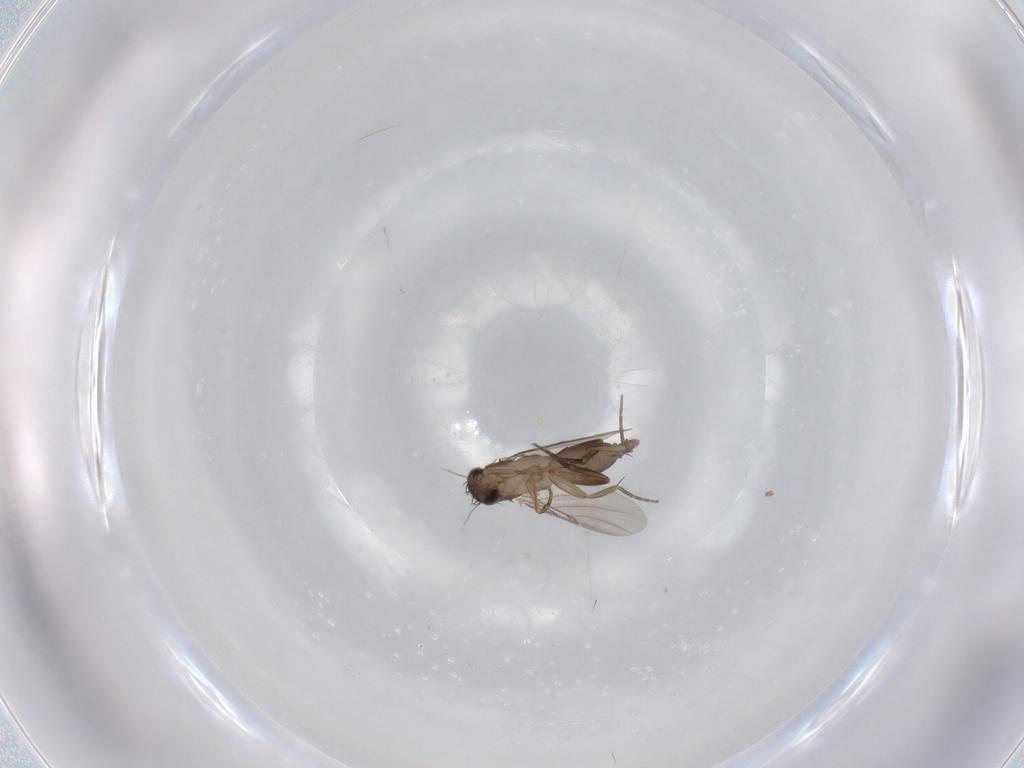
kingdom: Animalia
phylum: Arthropoda
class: Insecta
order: Diptera
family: Phoridae
